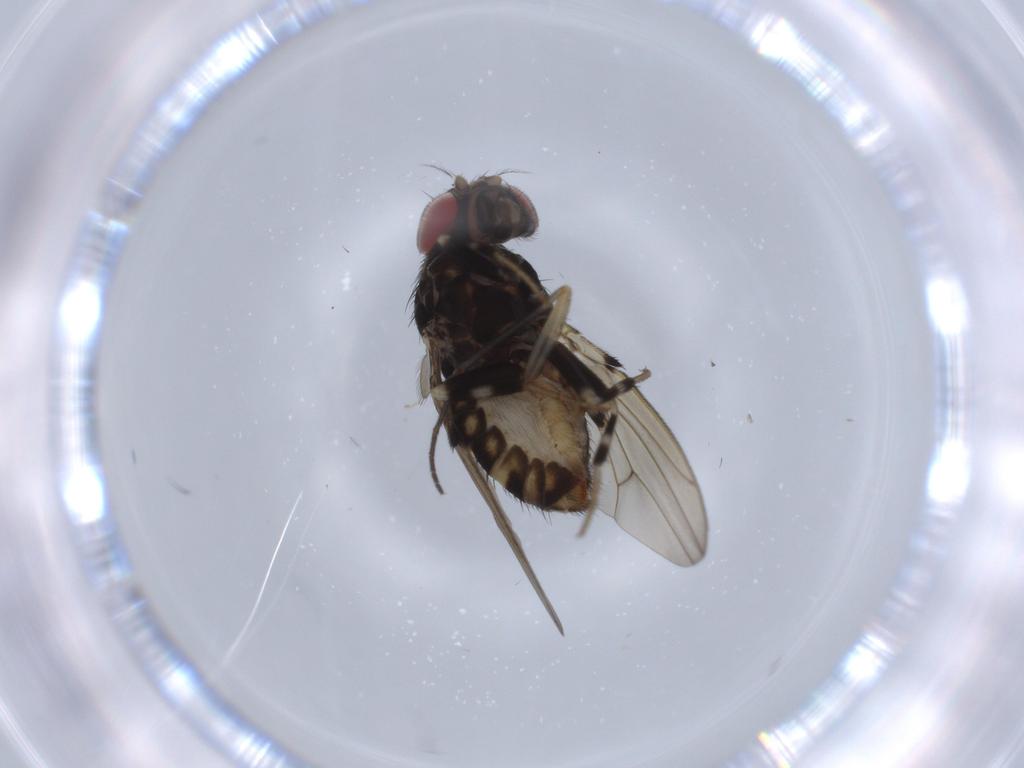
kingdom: Animalia
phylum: Arthropoda
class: Insecta
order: Diptera
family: Drosophilidae
